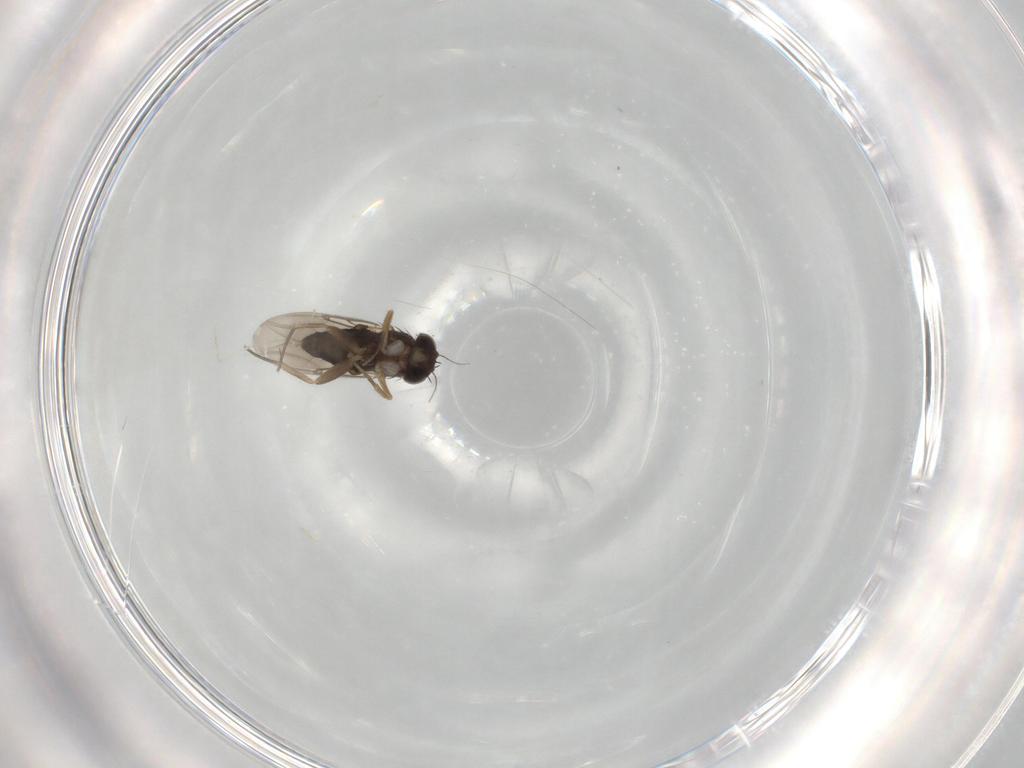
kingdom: Animalia
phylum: Arthropoda
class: Insecta
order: Diptera
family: Phoridae
